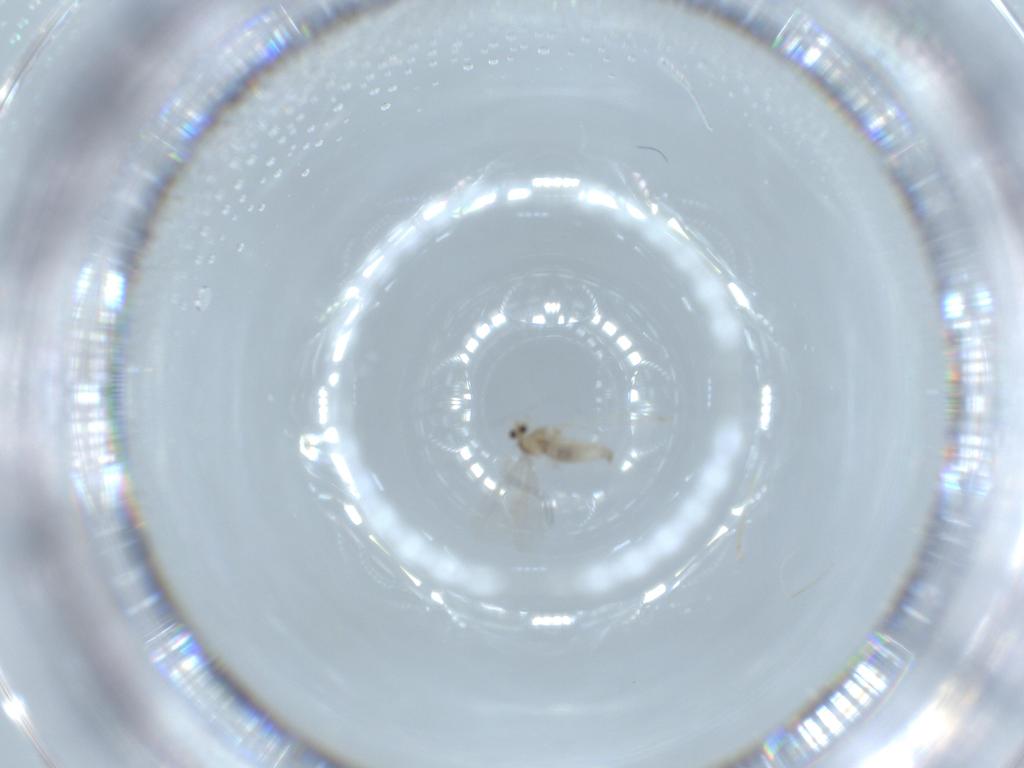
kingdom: Animalia
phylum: Arthropoda
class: Insecta
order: Diptera
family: Cecidomyiidae
